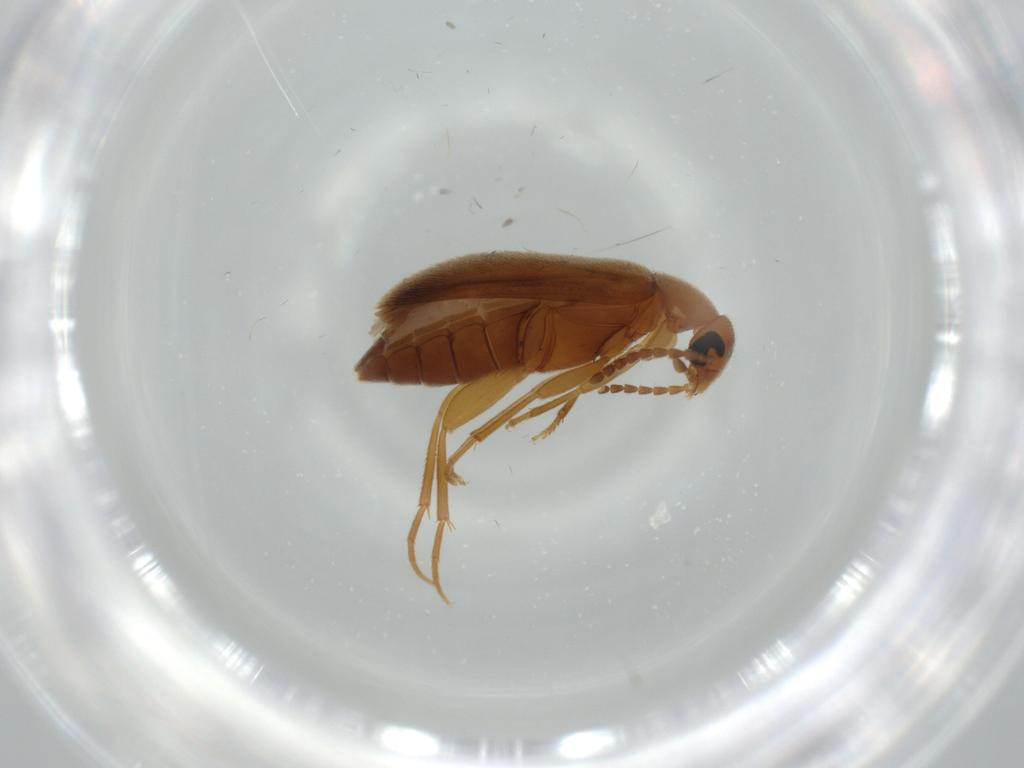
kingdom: Animalia
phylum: Arthropoda
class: Insecta
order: Coleoptera
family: Scraptiidae
